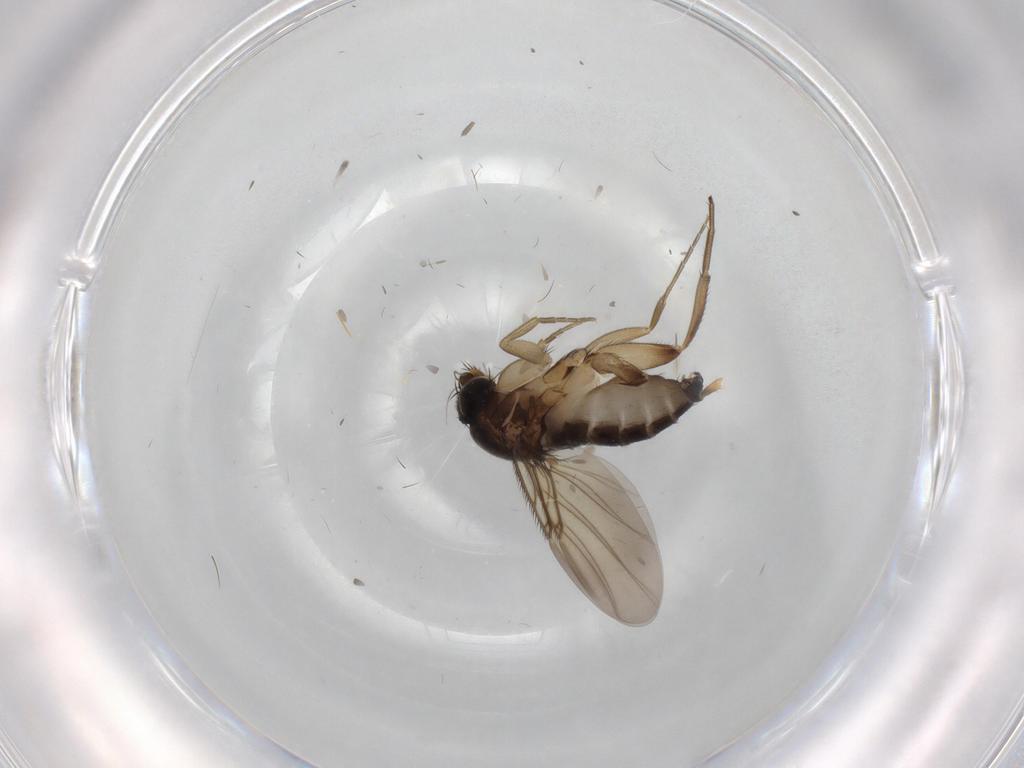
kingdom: Animalia
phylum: Arthropoda
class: Insecta
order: Diptera
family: Phoridae
